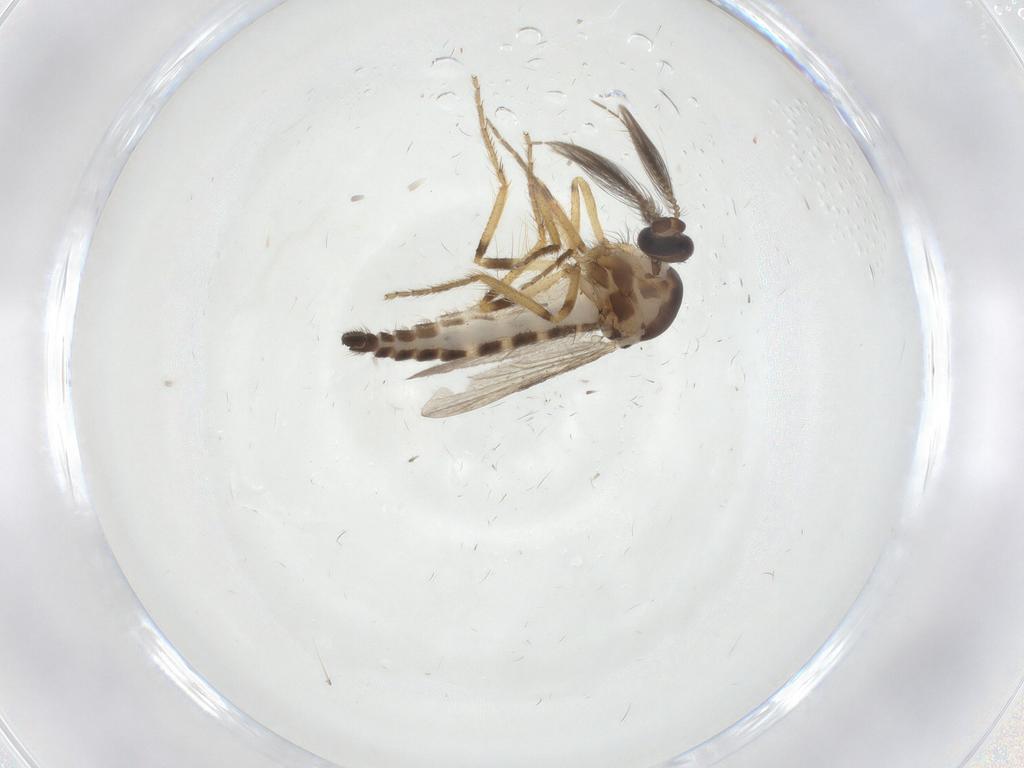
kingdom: Animalia
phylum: Arthropoda
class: Insecta
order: Diptera
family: Ceratopogonidae
